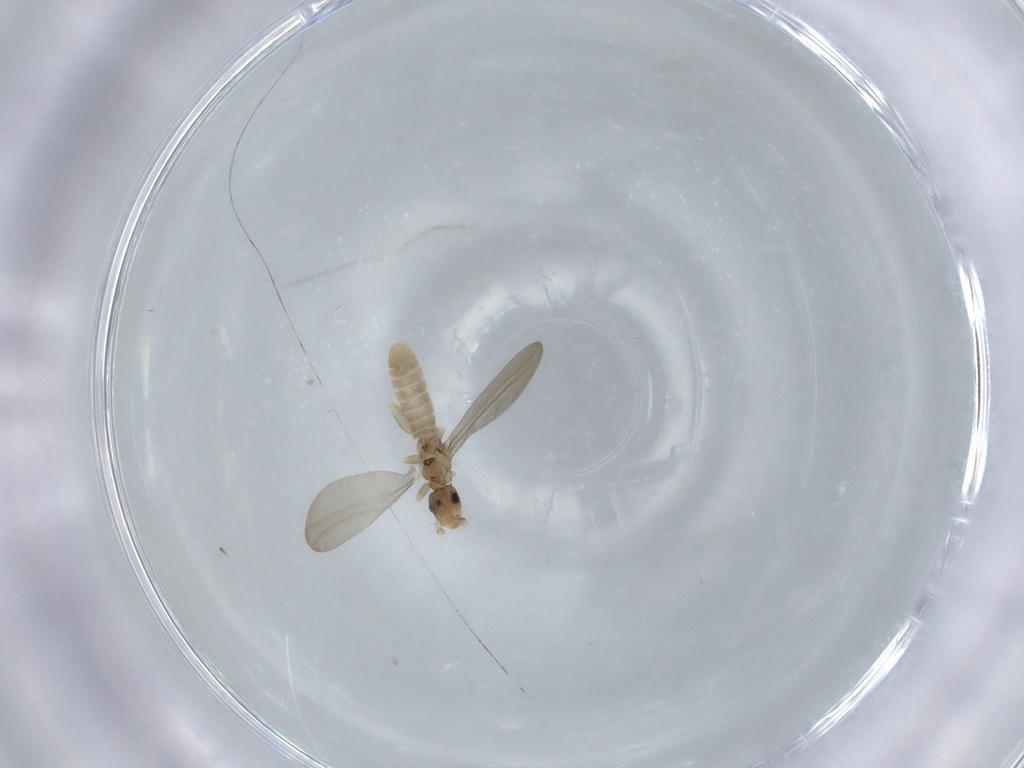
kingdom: Animalia
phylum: Arthropoda
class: Insecta
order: Psocodea
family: Liposcelididae
